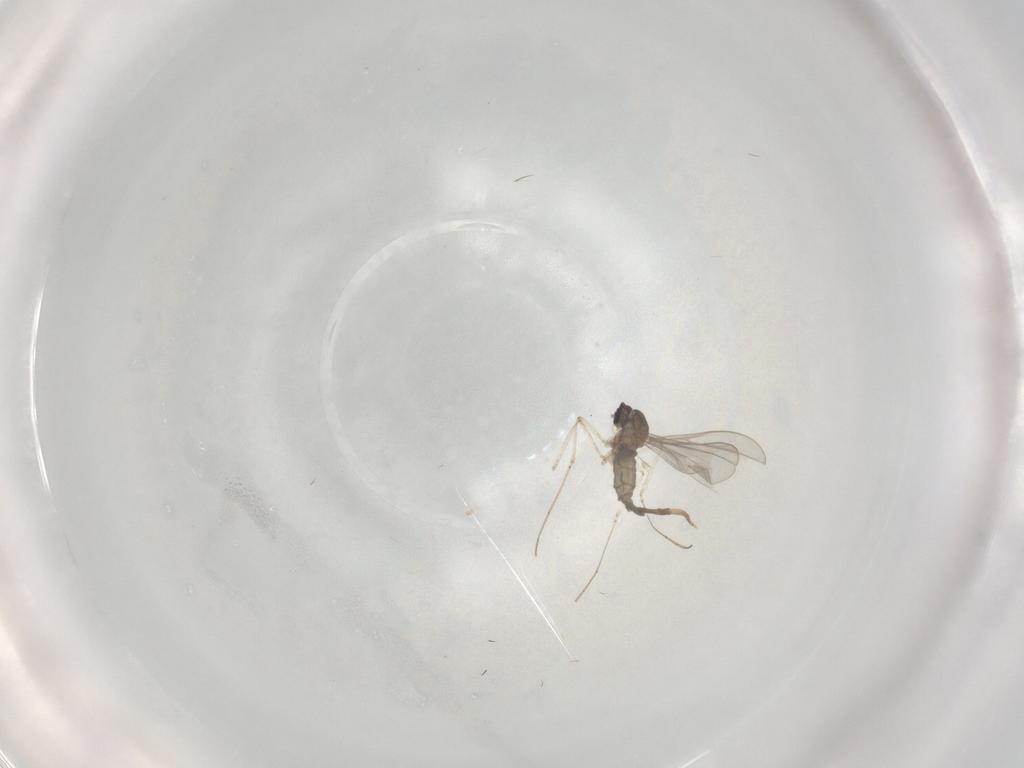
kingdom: Animalia
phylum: Arthropoda
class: Insecta
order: Diptera
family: Cecidomyiidae
